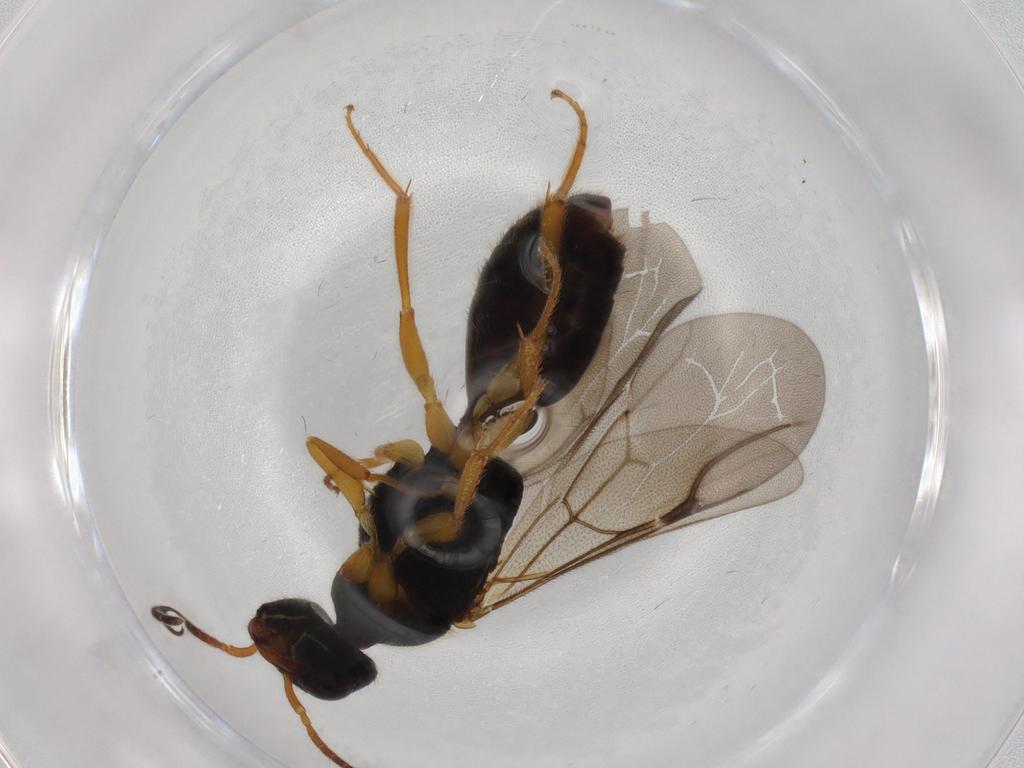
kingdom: Animalia
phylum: Arthropoda
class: Insecta
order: Hymenoptera
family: Bethylidae
